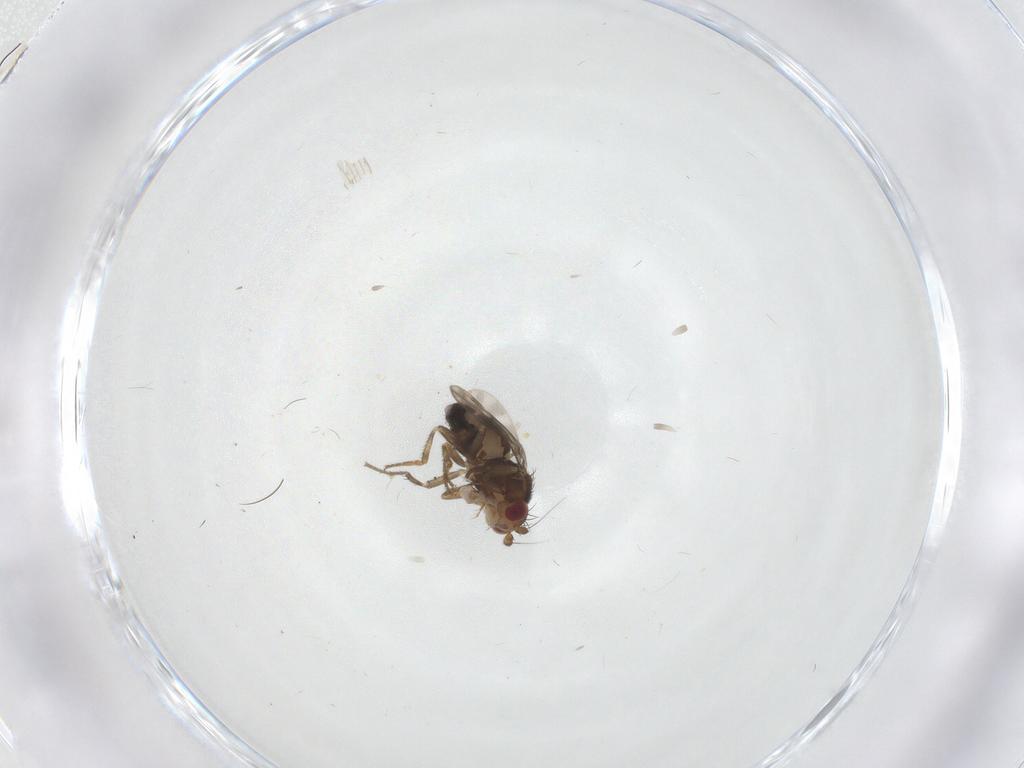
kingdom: Animalia
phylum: Arthropoda
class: Insecta
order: Diptera
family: Sphaeroceridae
